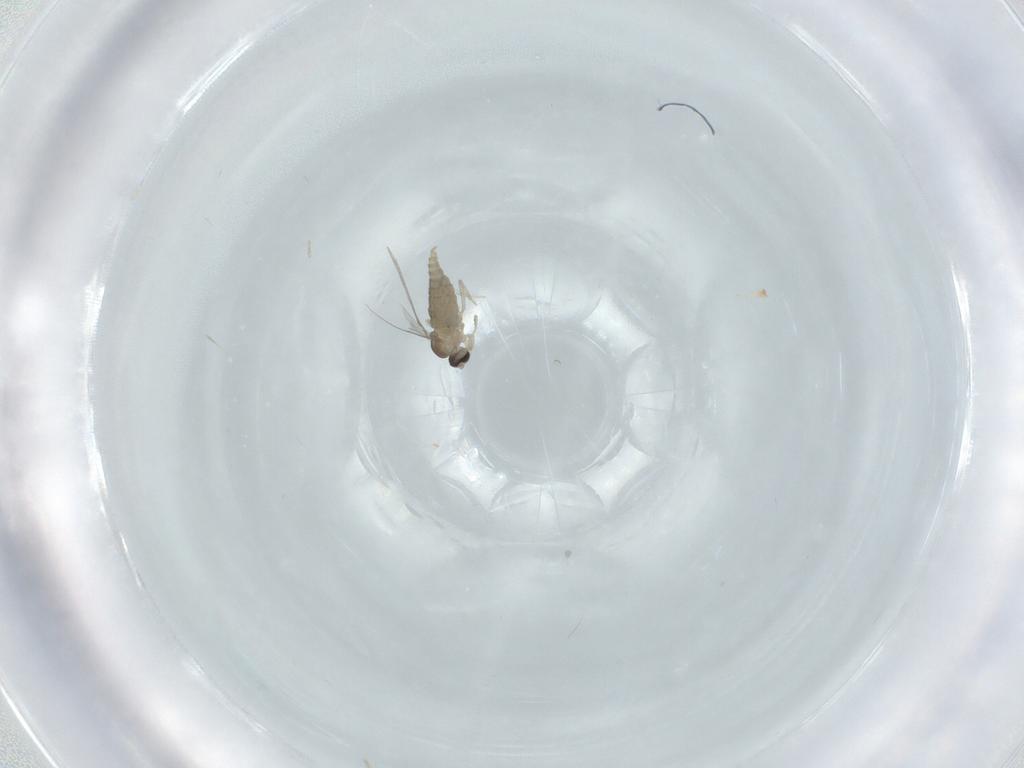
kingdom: Animalia
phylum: Arthropoda
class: Insecta
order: Diptera
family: Cecidomyiidae
